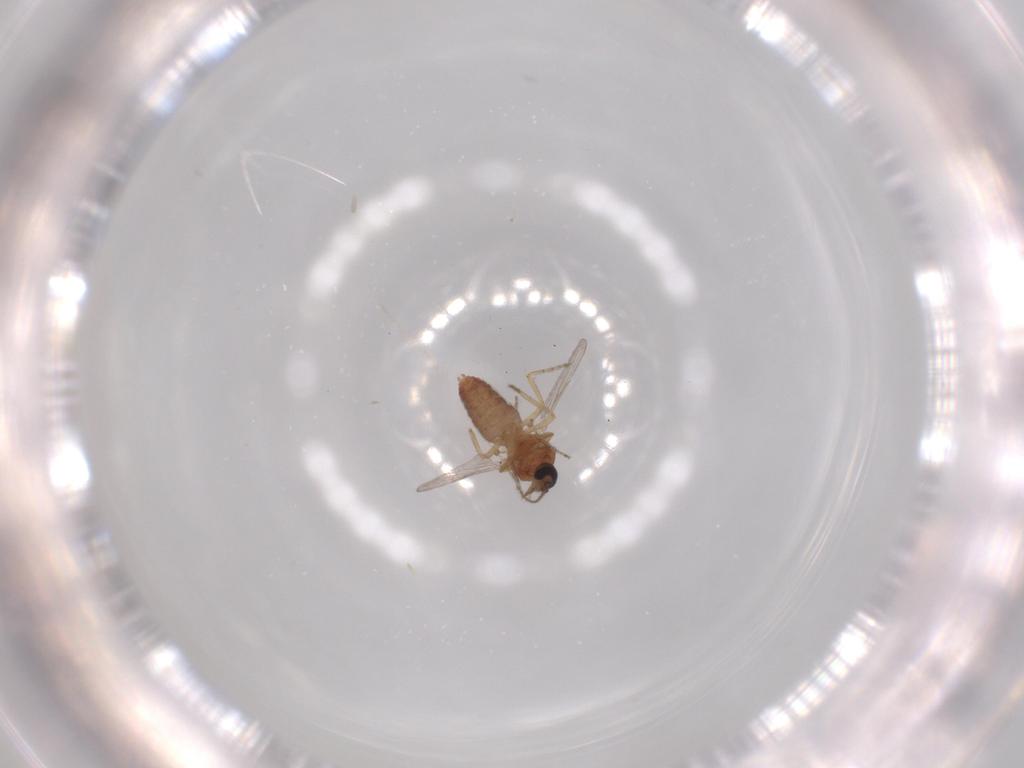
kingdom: Animalia
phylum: Arthropoda
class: Insecta
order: Diptera
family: Ceratopogonidae
